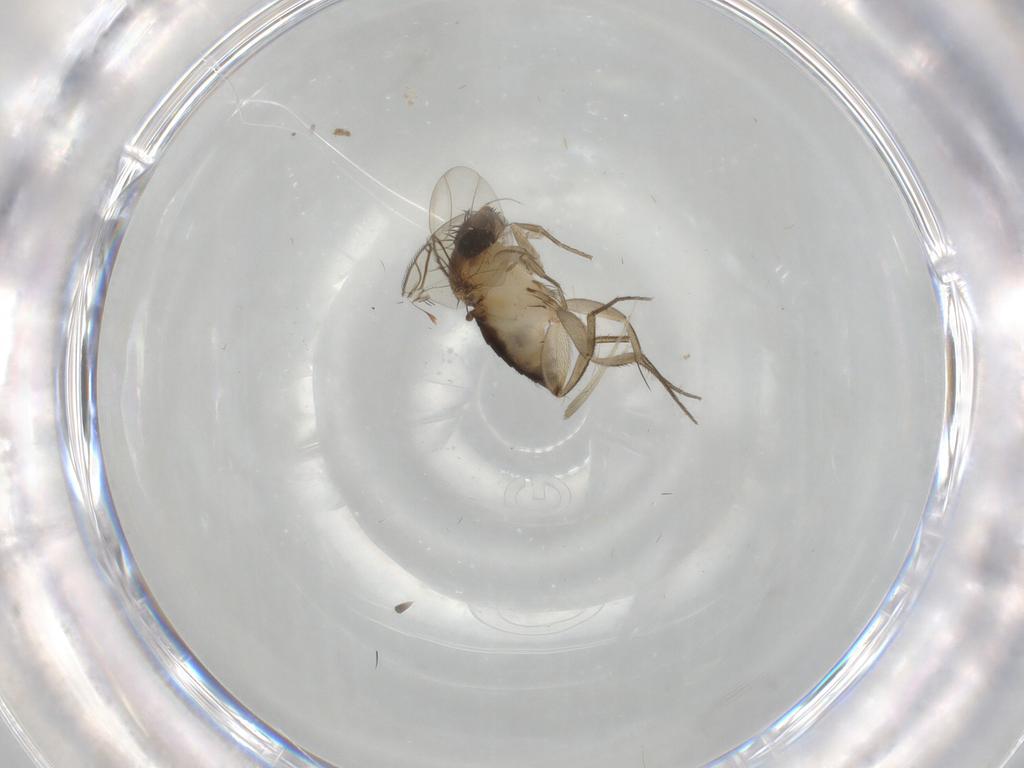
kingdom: Animalia
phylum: Arthropoda
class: Insecta
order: Diptera
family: Phoridae
